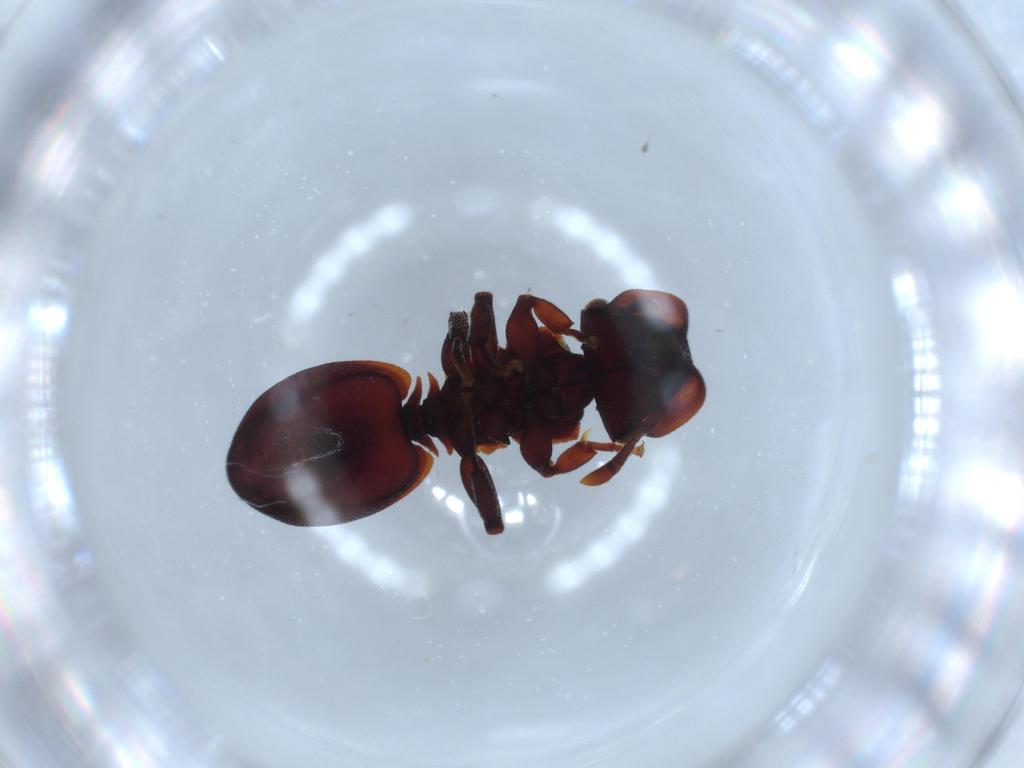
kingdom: Animalia
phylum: Arthropoda
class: Insecta
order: Hymenoptera
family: Formicidae
